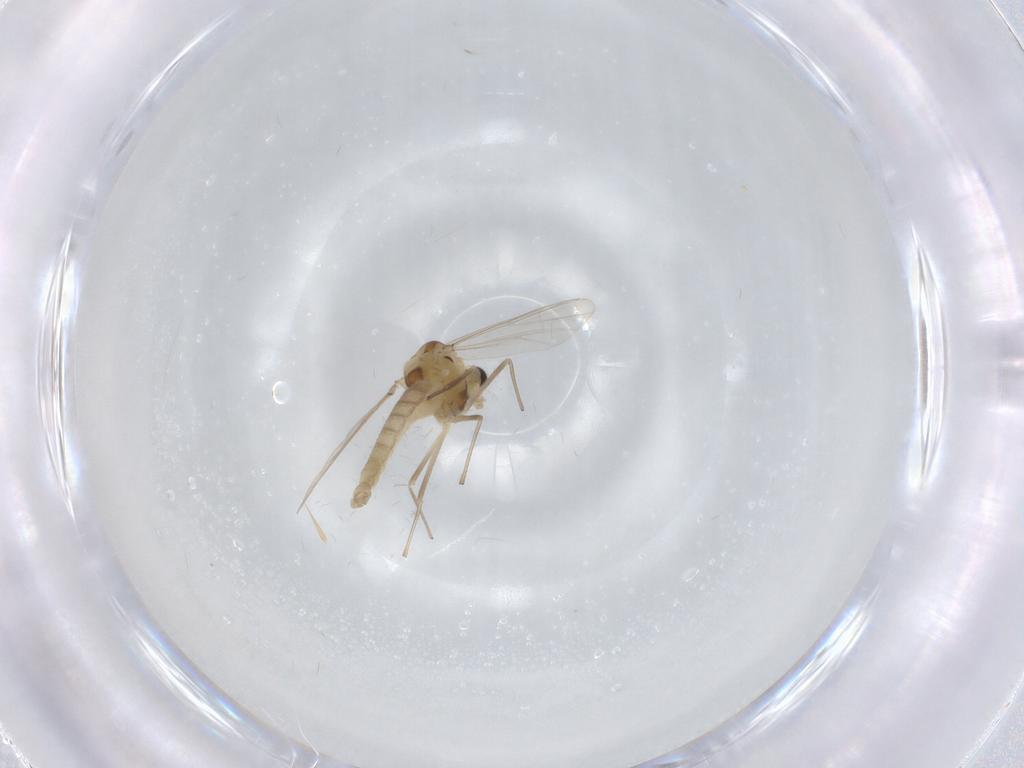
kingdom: Animalia
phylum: Arthropoda
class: Insecta
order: Diptera
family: Chironomidae
